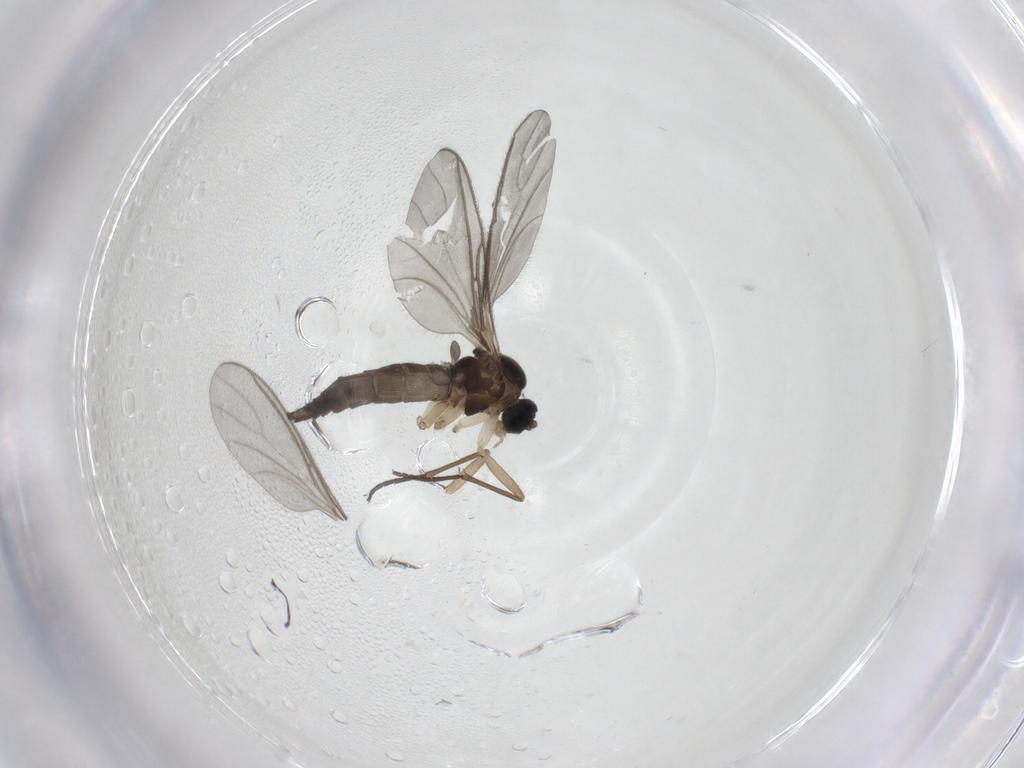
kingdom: Animalia
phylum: Arthropoda
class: Insecta
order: Diptera
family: Sciaridae
